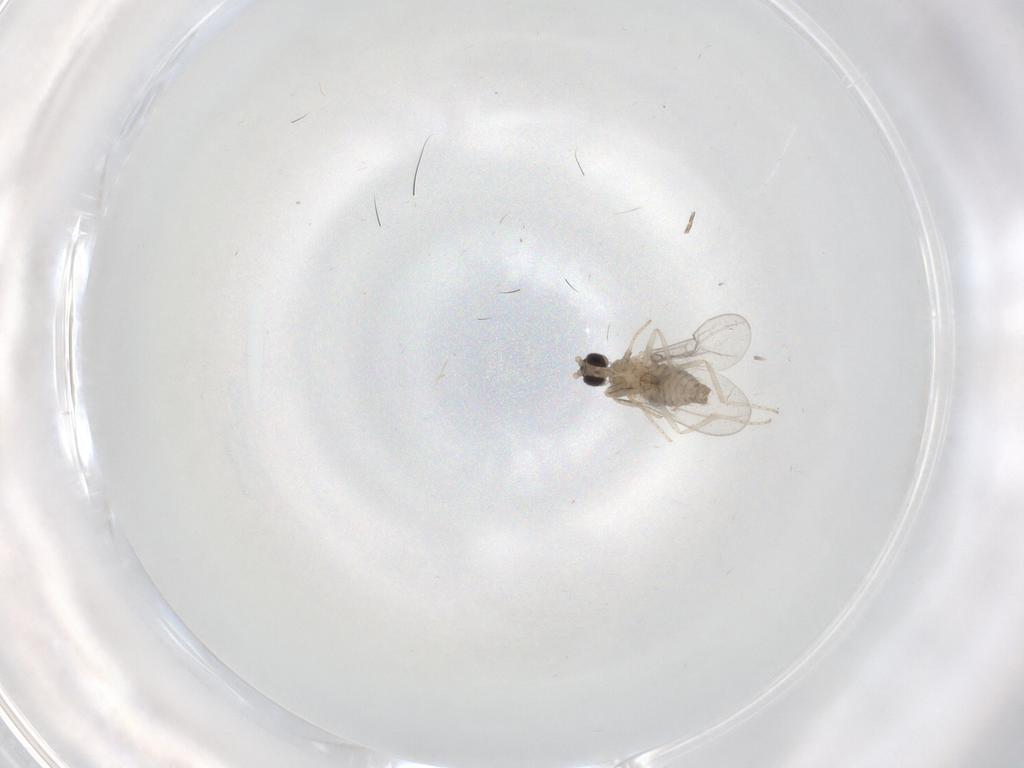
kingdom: Animalia
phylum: Arthropoda
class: Insecta
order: Diptera
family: Cecidomyiidae
